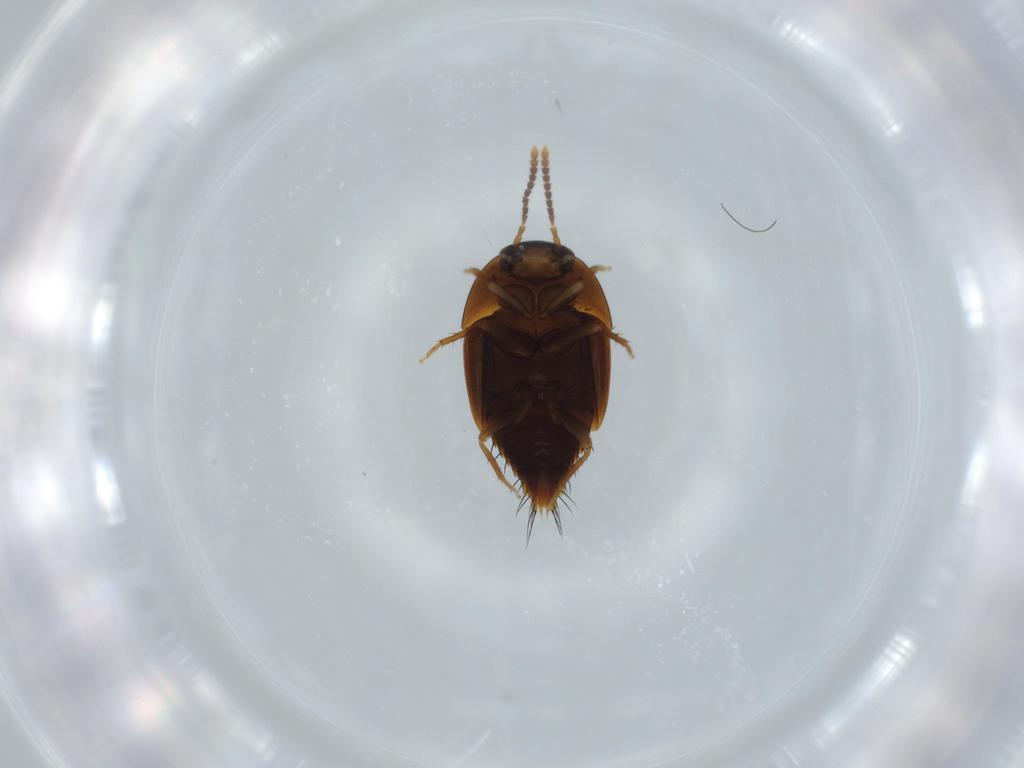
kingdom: Animalia
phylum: Arthropoda
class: Insecta
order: Coleoptera
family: Staphylinidae
